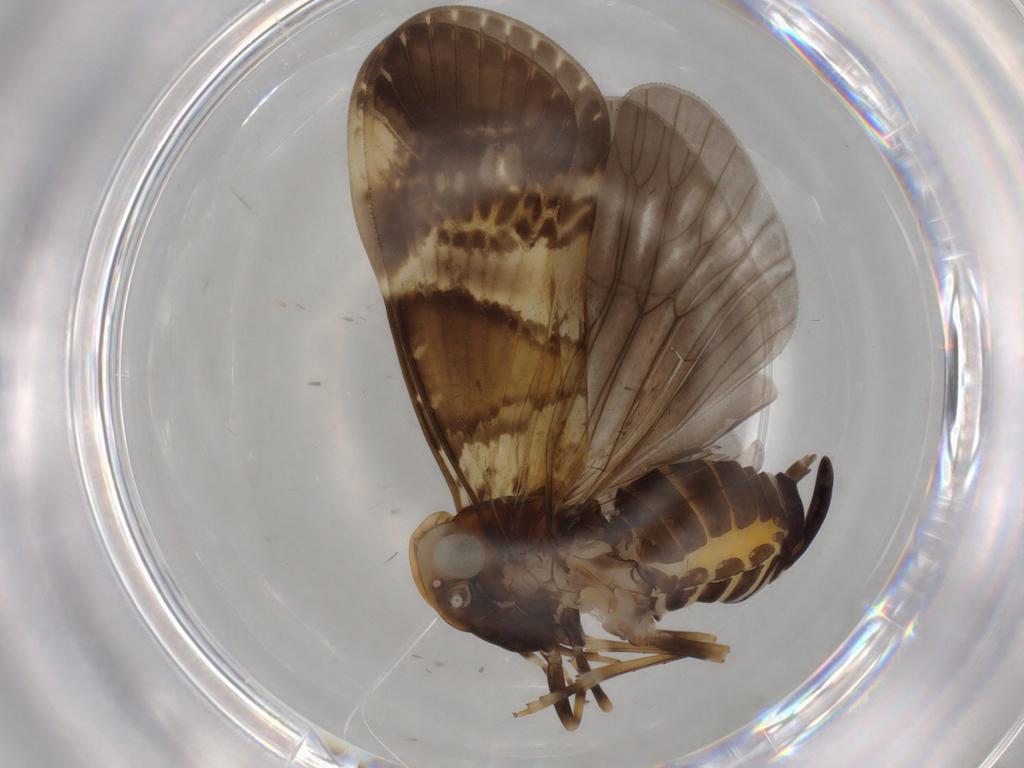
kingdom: Animalia
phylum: Arthropoda
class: Insecta
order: Hemiptera
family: Cixiidae
